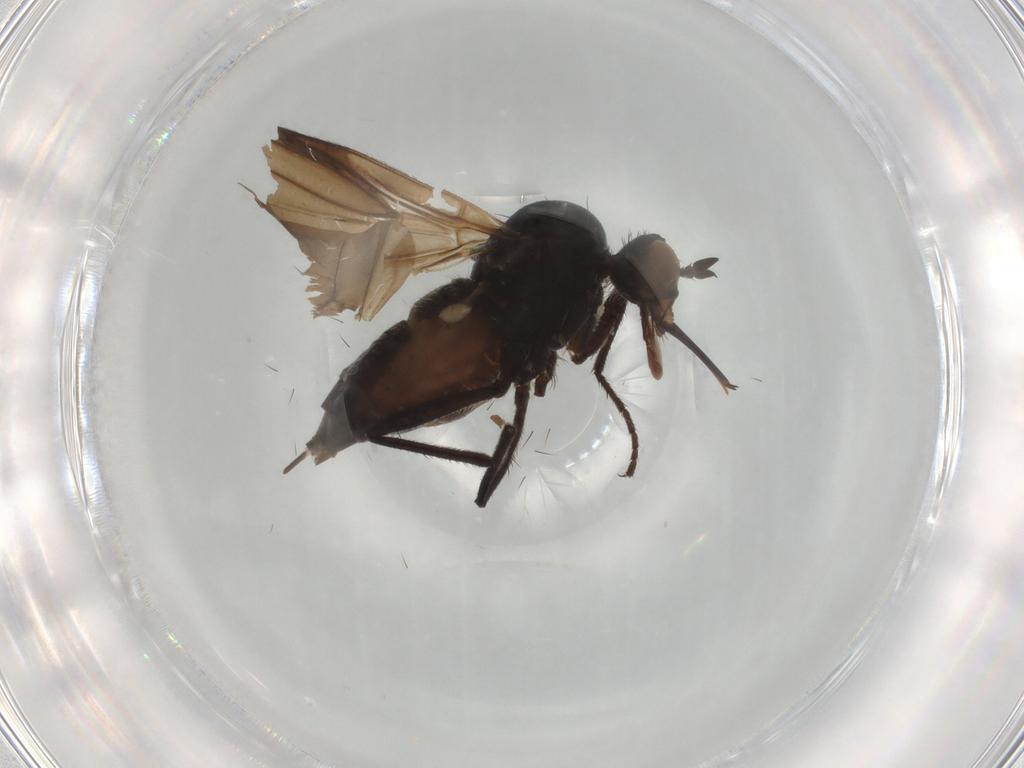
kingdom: Animalia
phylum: Arthropoda
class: Insecta
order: Diptera
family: Empididae
